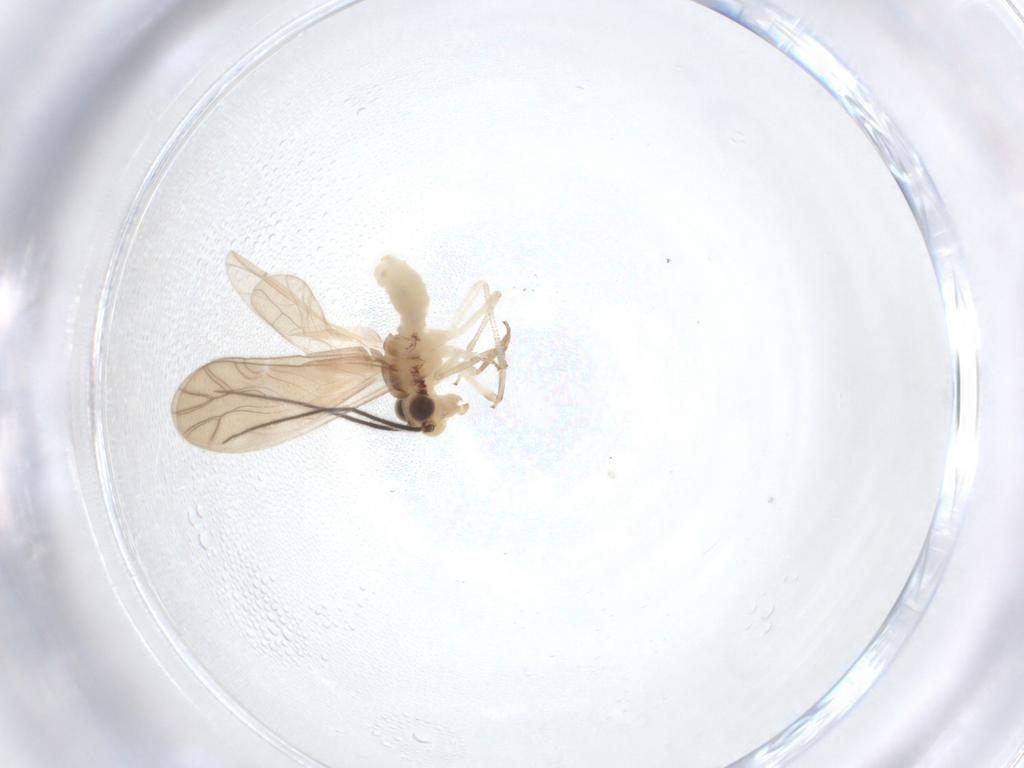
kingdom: Animalia
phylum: Arthropoda
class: Insecta
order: Psocodea
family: Caeciliusidae
